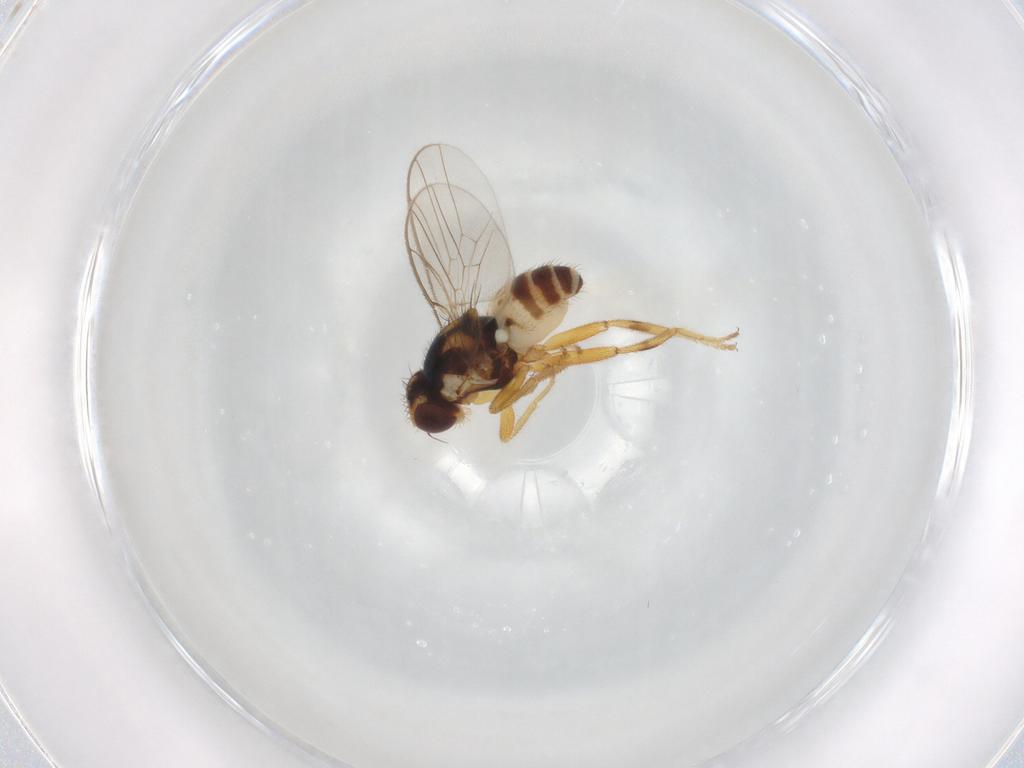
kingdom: Animalia
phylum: Arthropoda
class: Insecta
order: Diptera
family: Chloropidae
